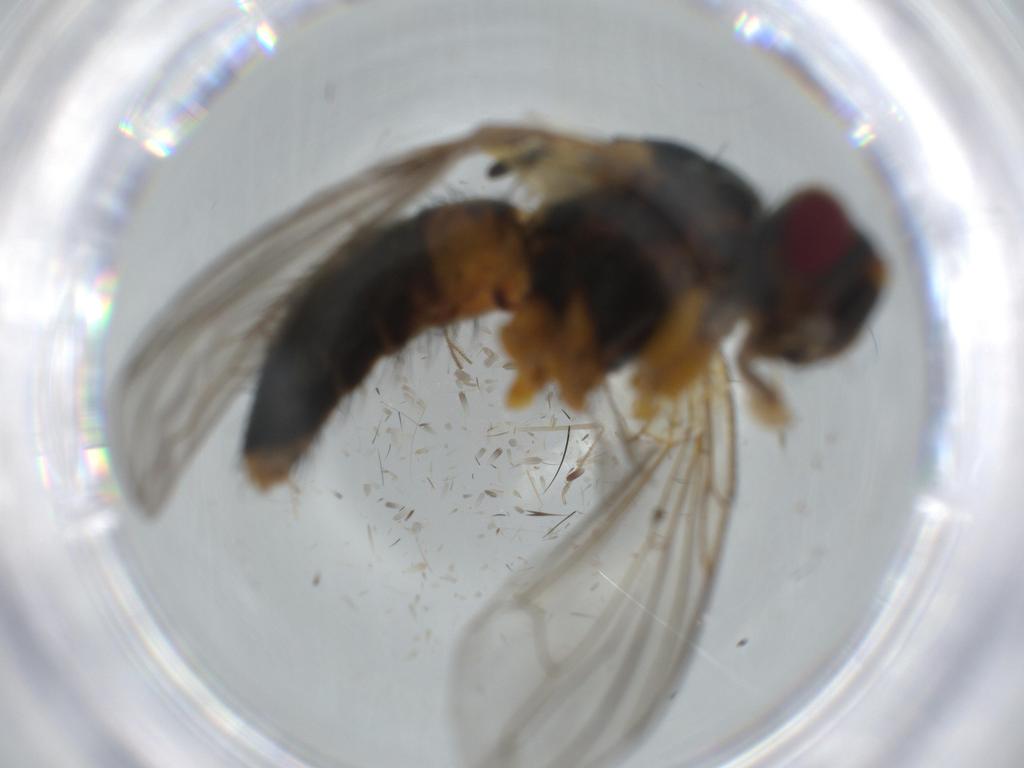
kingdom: Animalia
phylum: Arthropoda
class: Insecta
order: Diptera
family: Tachinidae
